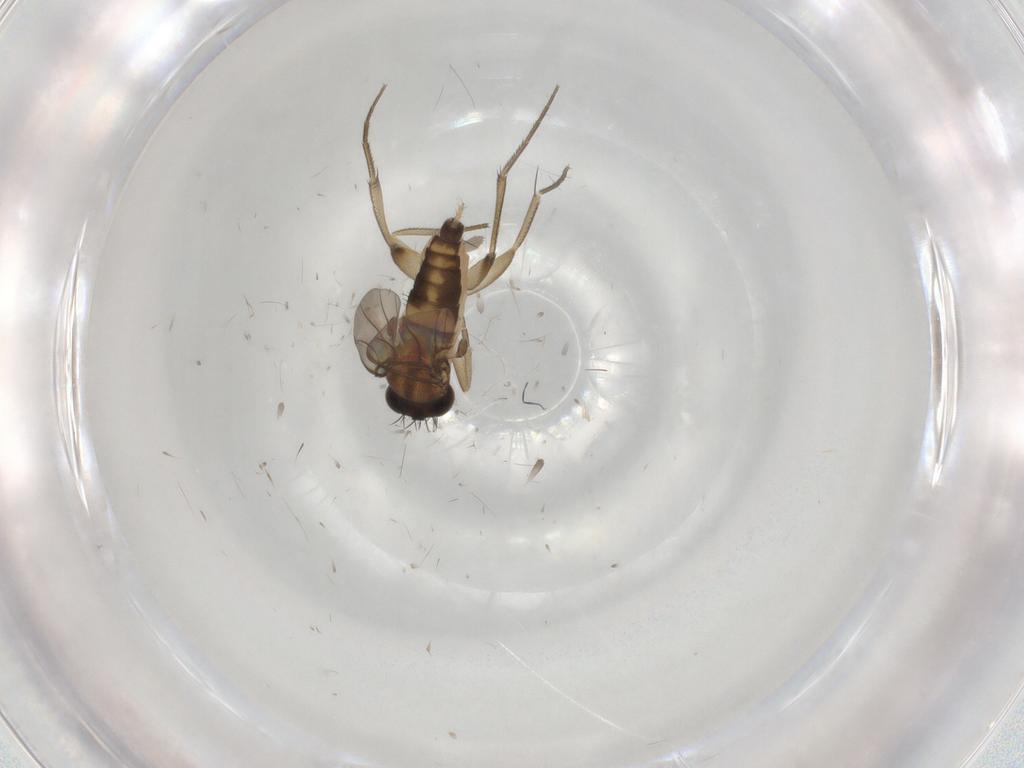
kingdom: Animalia
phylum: Arthropoda
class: Insecta
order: Diptera
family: Phoridae
